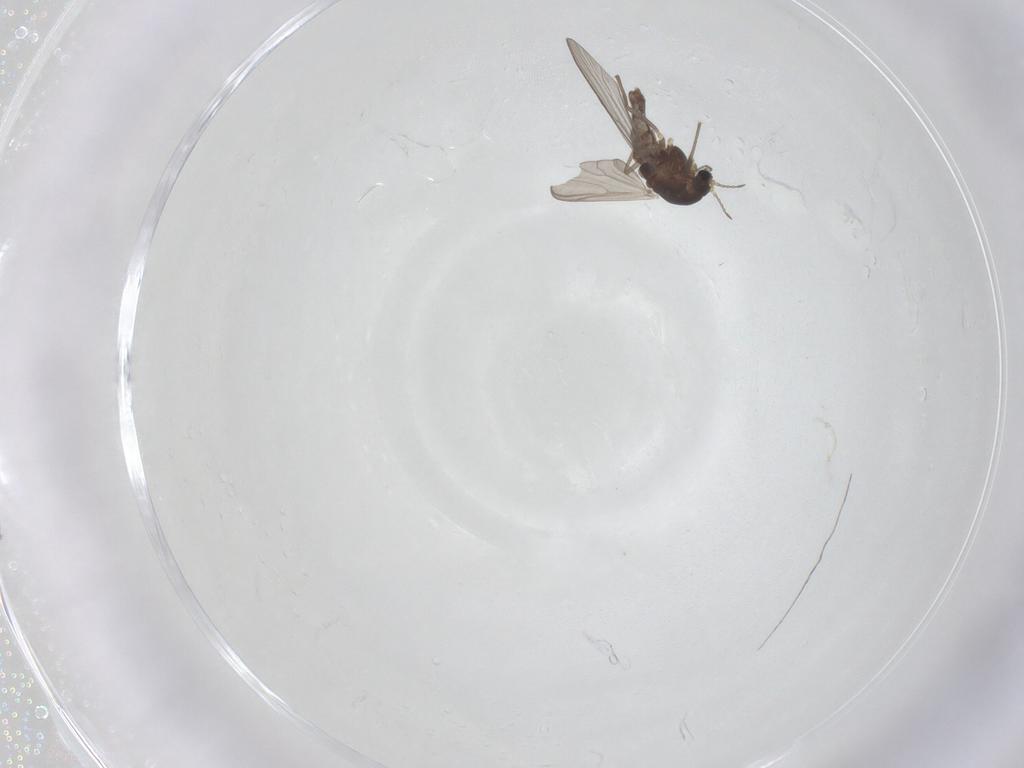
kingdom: Animalia
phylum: Arthropoda
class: Insecta
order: Diptera
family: Chironomidae
